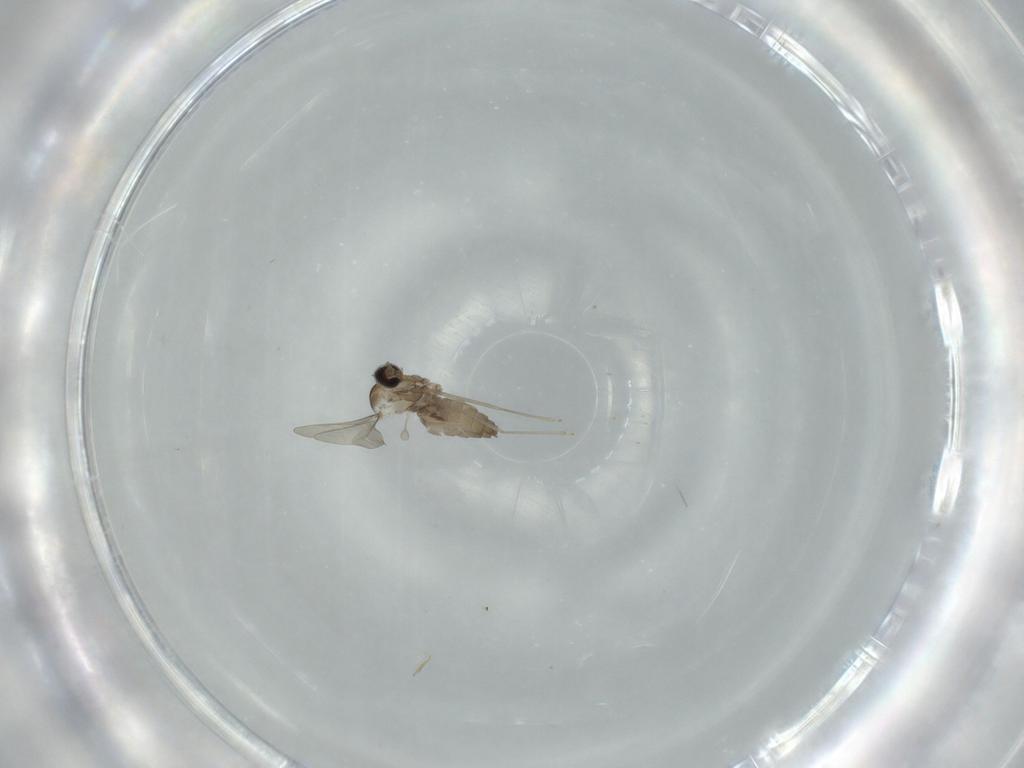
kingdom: Animalia
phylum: Arthropoda
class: Insecta
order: Diptera
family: Cecidomyiidae
